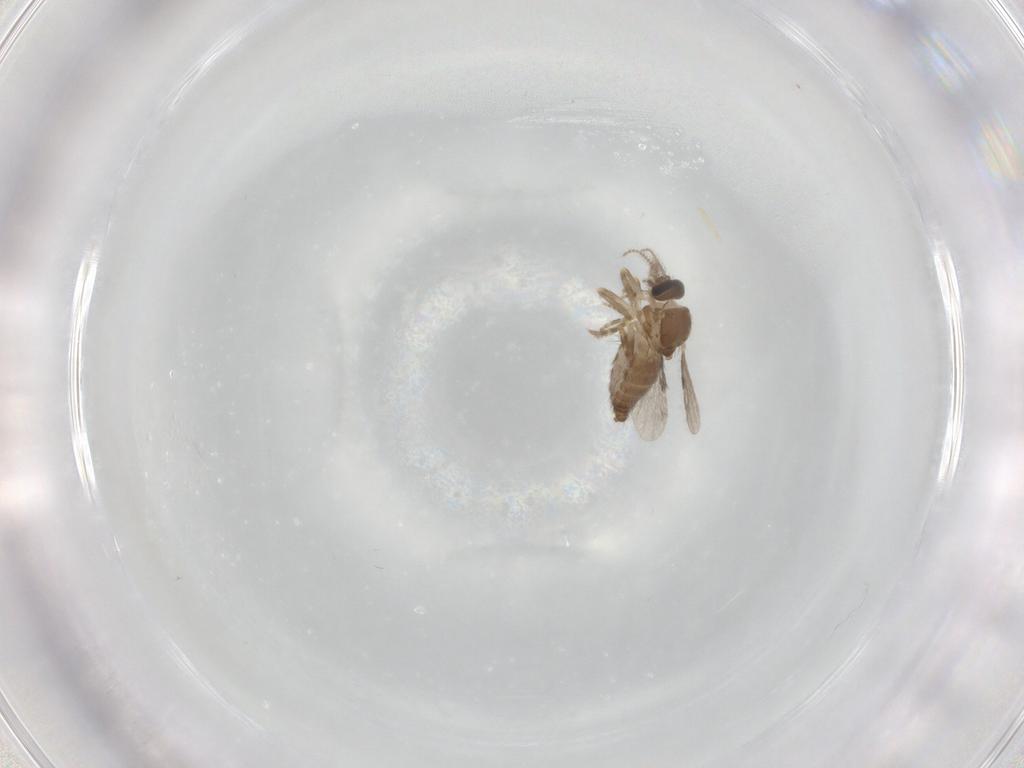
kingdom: Animalia
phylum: Arthropoda
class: Insecta
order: Diptera
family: Ceratopogonidae
